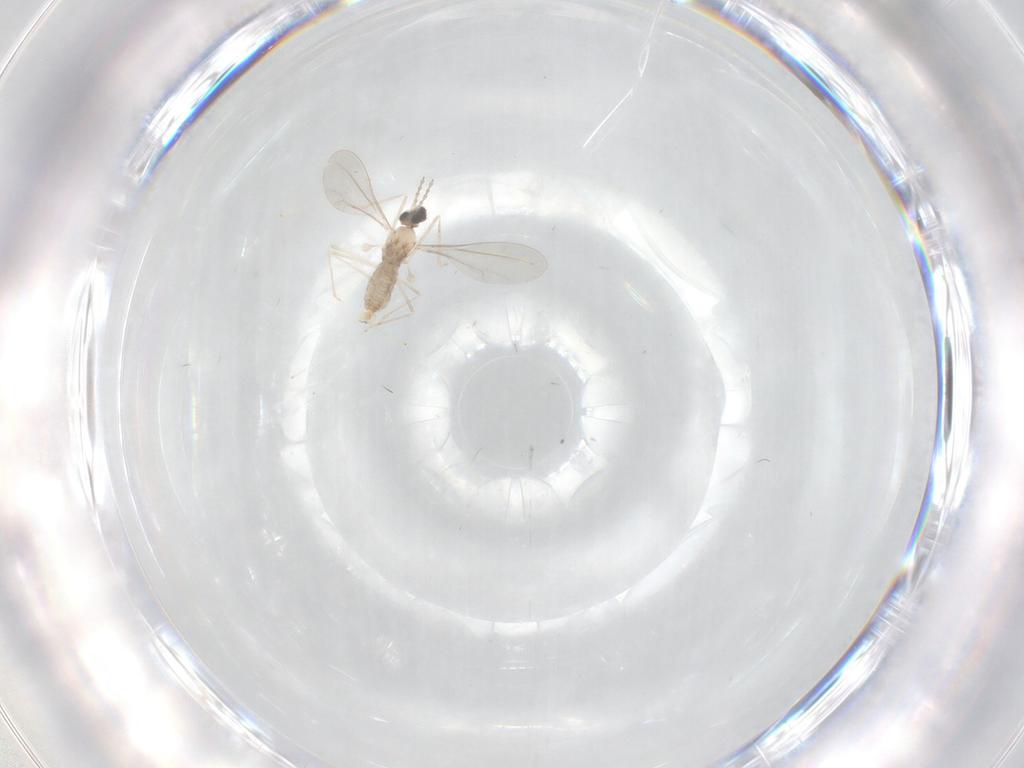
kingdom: Animalia
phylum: Arthropoda
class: Insecta
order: Diptera
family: Cecidomyiidae
